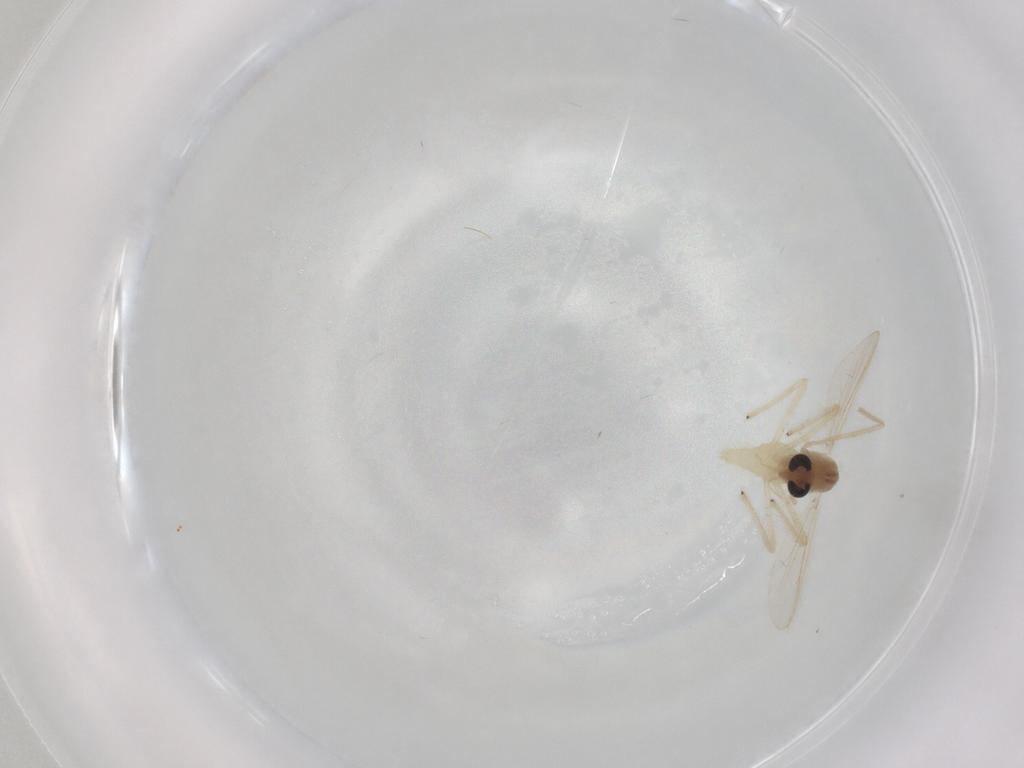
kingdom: Animalia
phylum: Arthropoda
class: Insecta
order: Diptera
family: Chironomidae
